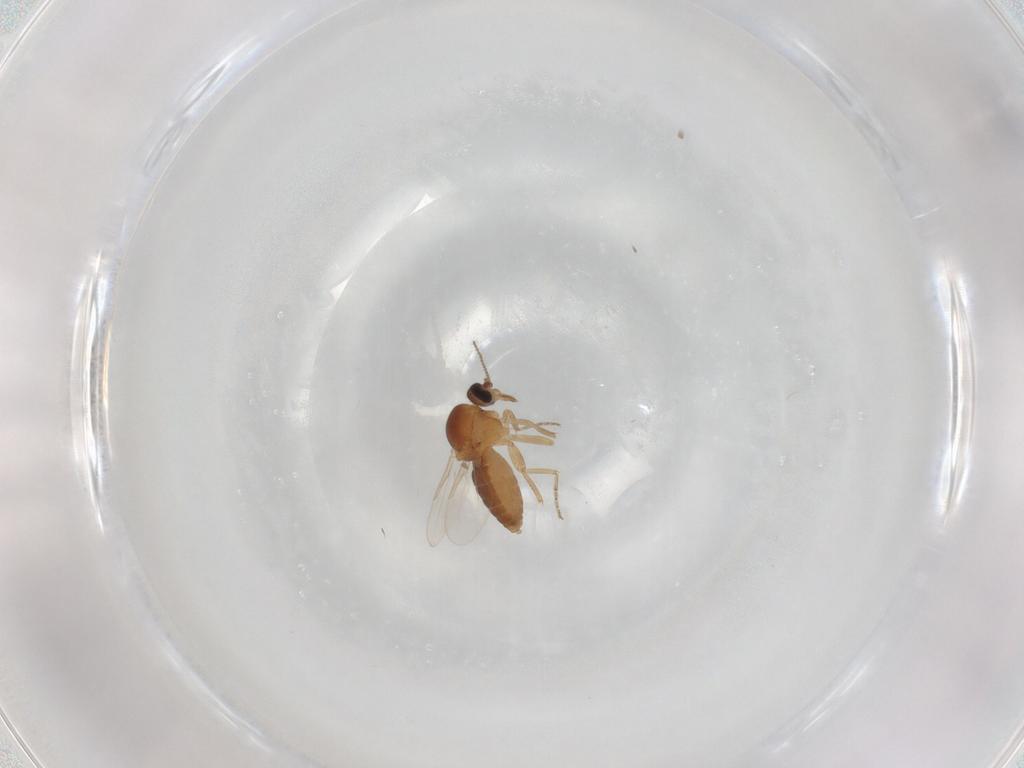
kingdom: Animalia
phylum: Arthropoda
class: Insecta
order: Diptera
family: Ceratopogonidae
